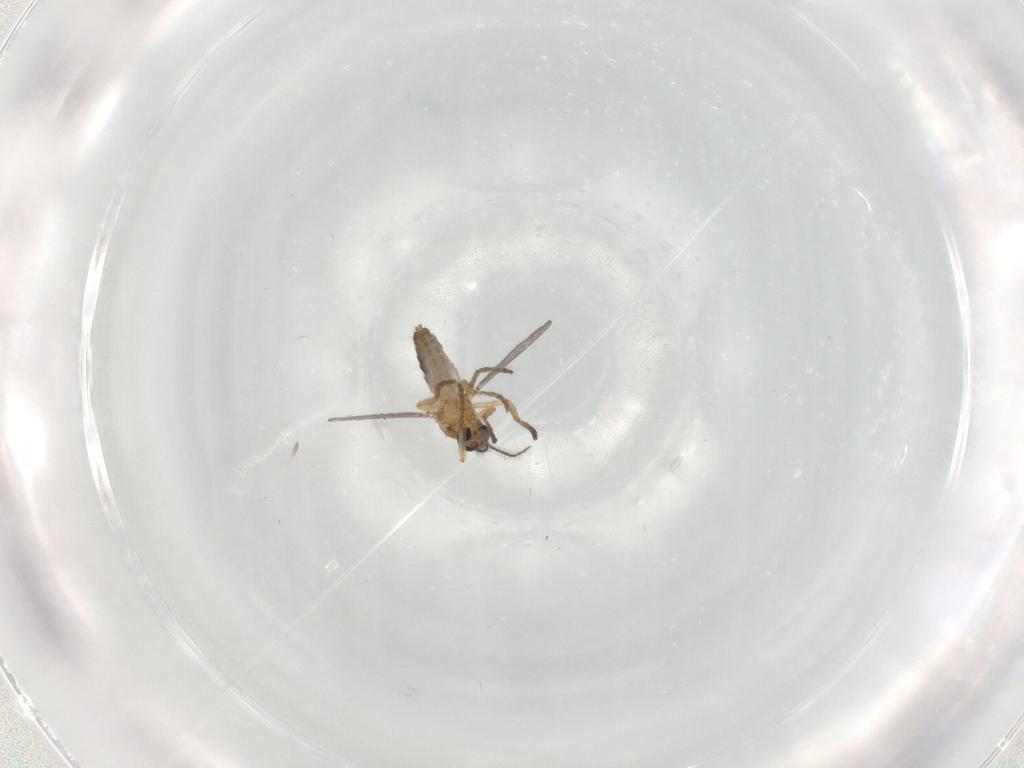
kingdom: Animalia
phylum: Arthropoda
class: Insecta
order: Diptera
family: Ceratopogonidae
